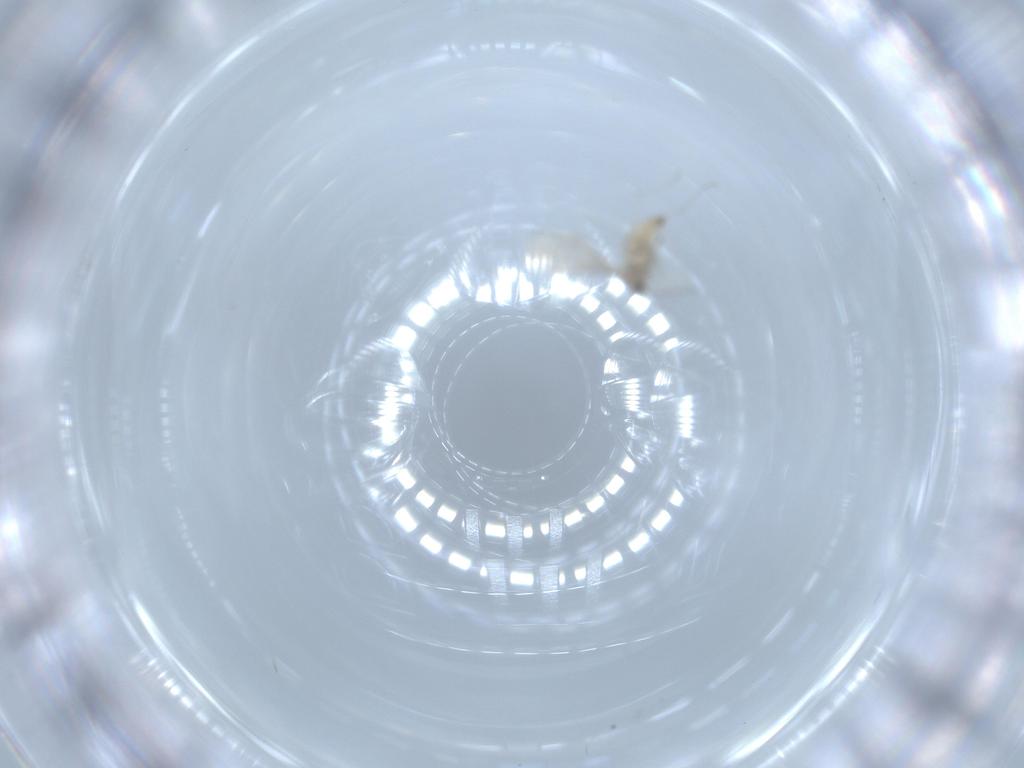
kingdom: Animalia
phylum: Arthropoda
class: Insecta
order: Diptera
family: Cecidomyiidae
